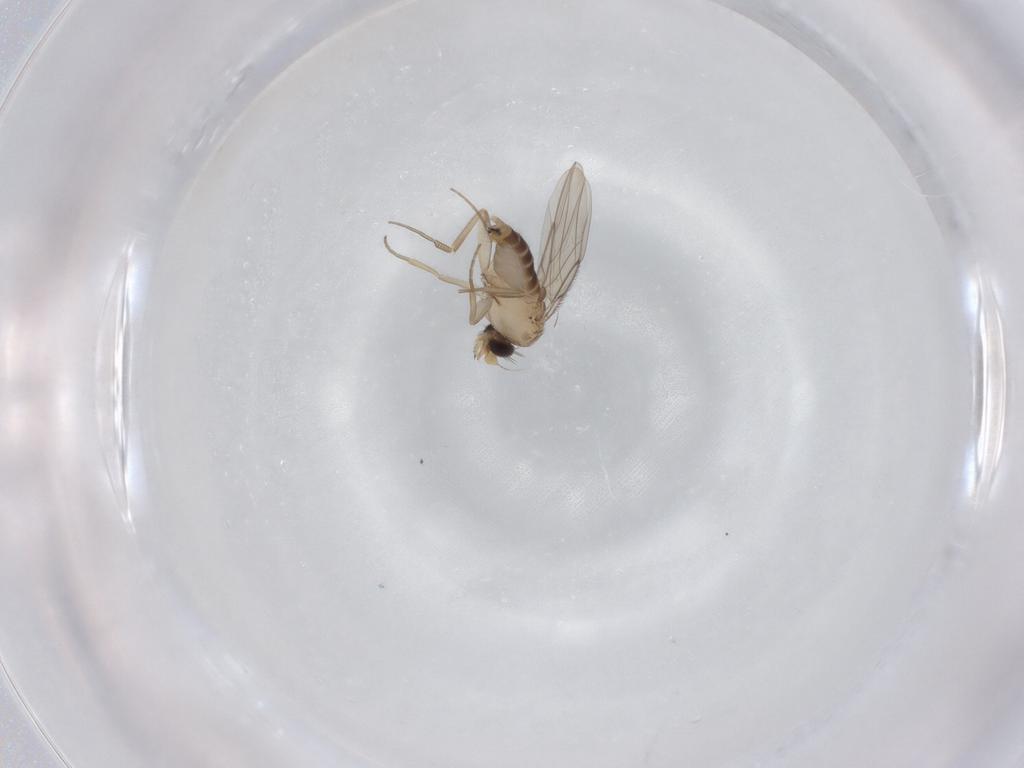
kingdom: Animalia
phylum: Arthropoda
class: Insecta
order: Diptera
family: Phoridae
